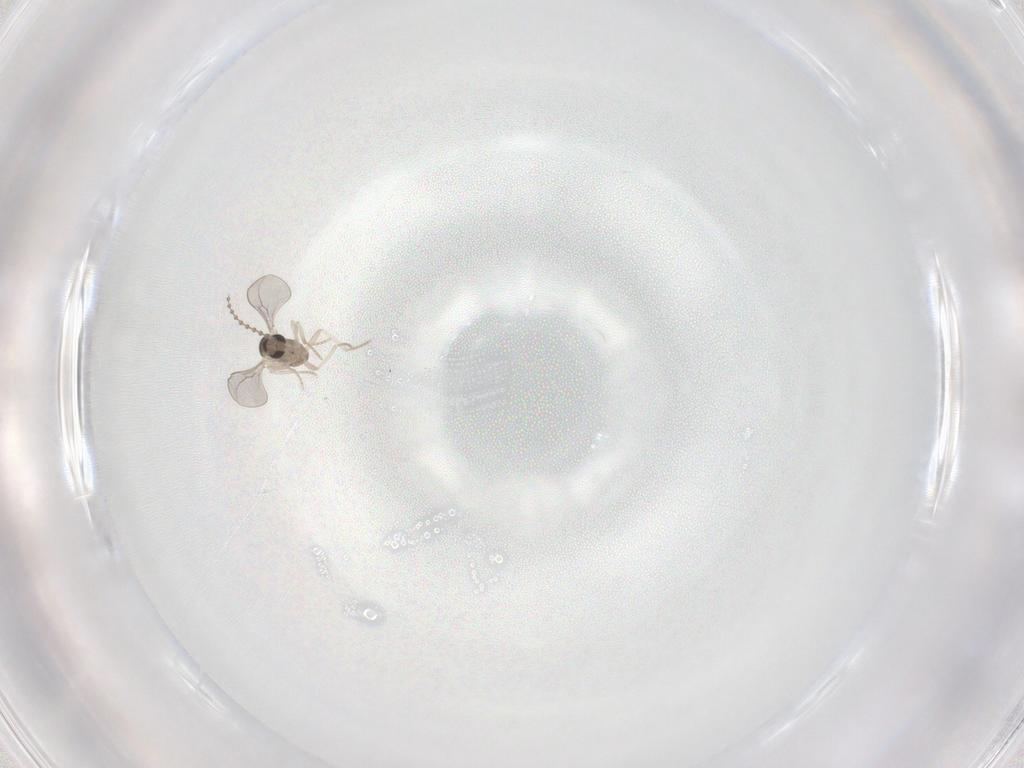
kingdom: Animalia
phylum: Arthropoda
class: Insecta
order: Diptera
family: Cecidomyiidae
